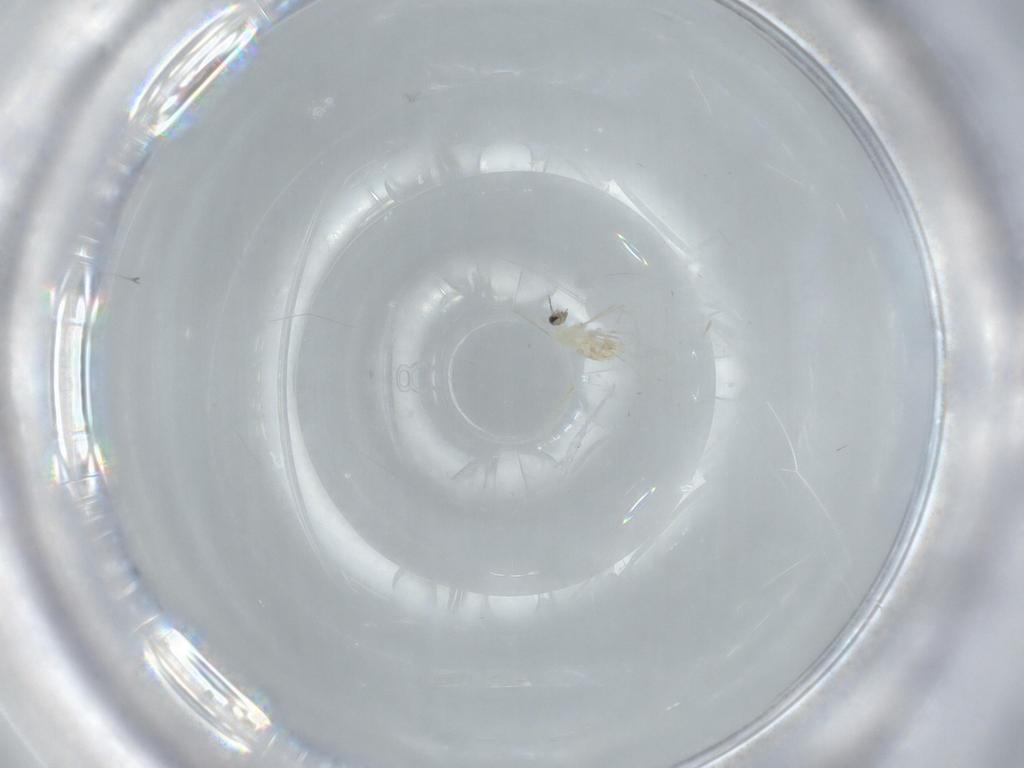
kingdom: Animalia
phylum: Arthropoda
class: Insecta
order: Diptera
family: Cecidomyiidae
